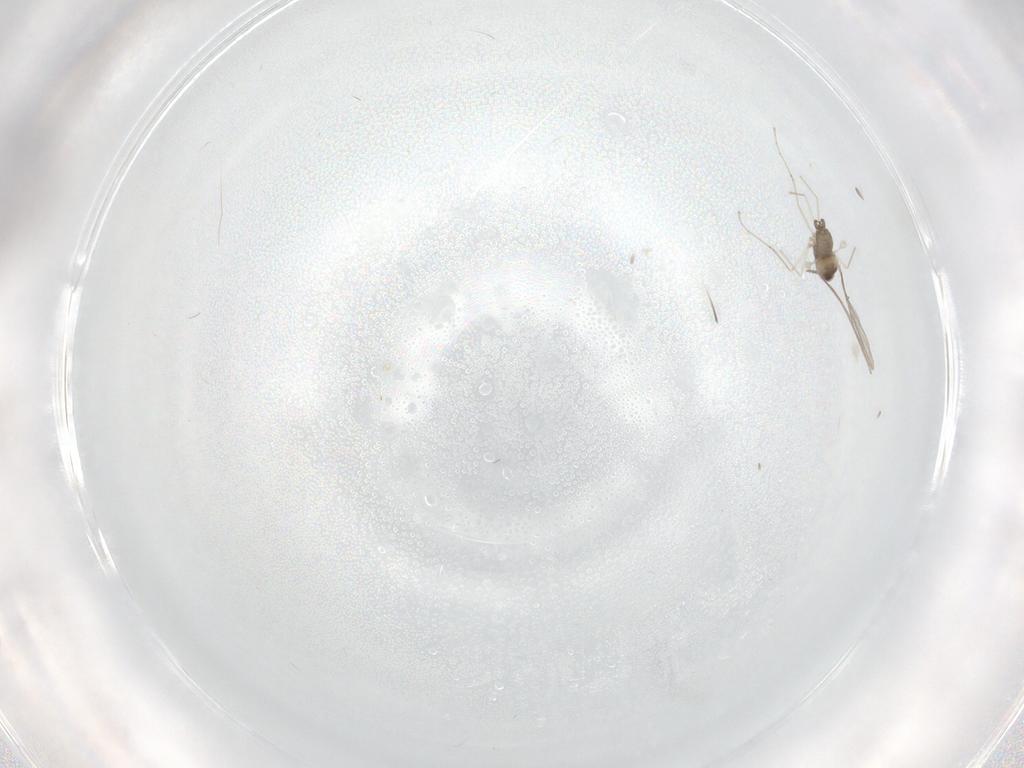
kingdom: Animalia
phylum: Arthropoda
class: Insecta
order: Diptera
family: Cecidomyiidae
